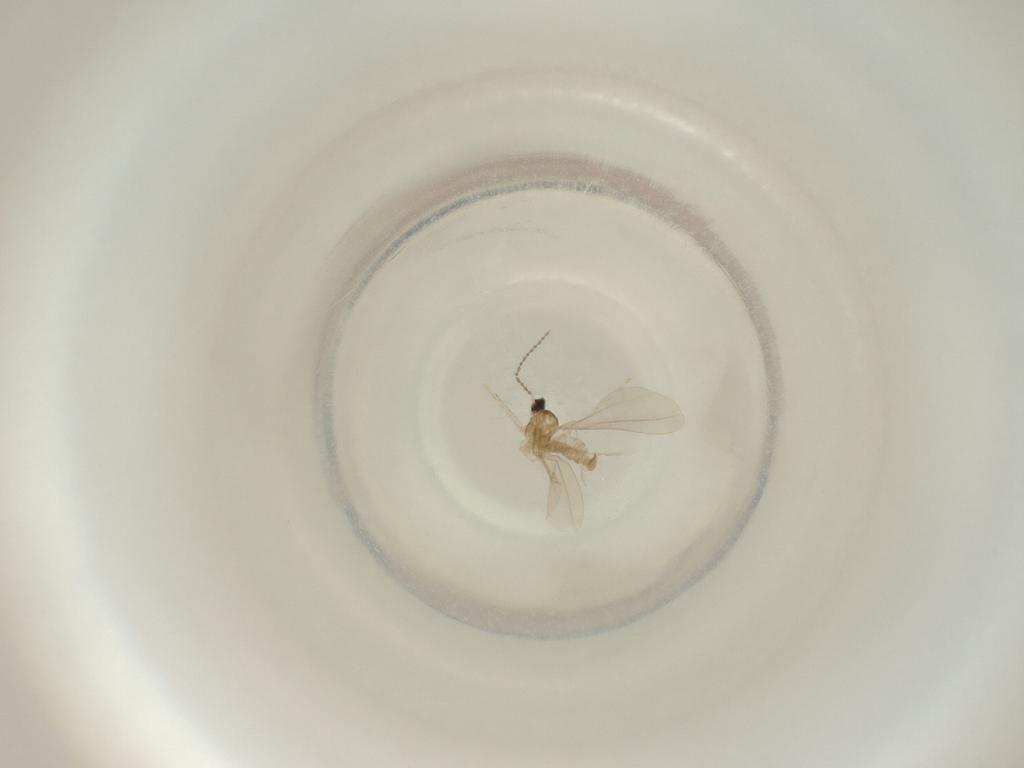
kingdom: Animalia
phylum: Arthropoda
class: Insecta
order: Diptera
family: Cecidomyiidae
